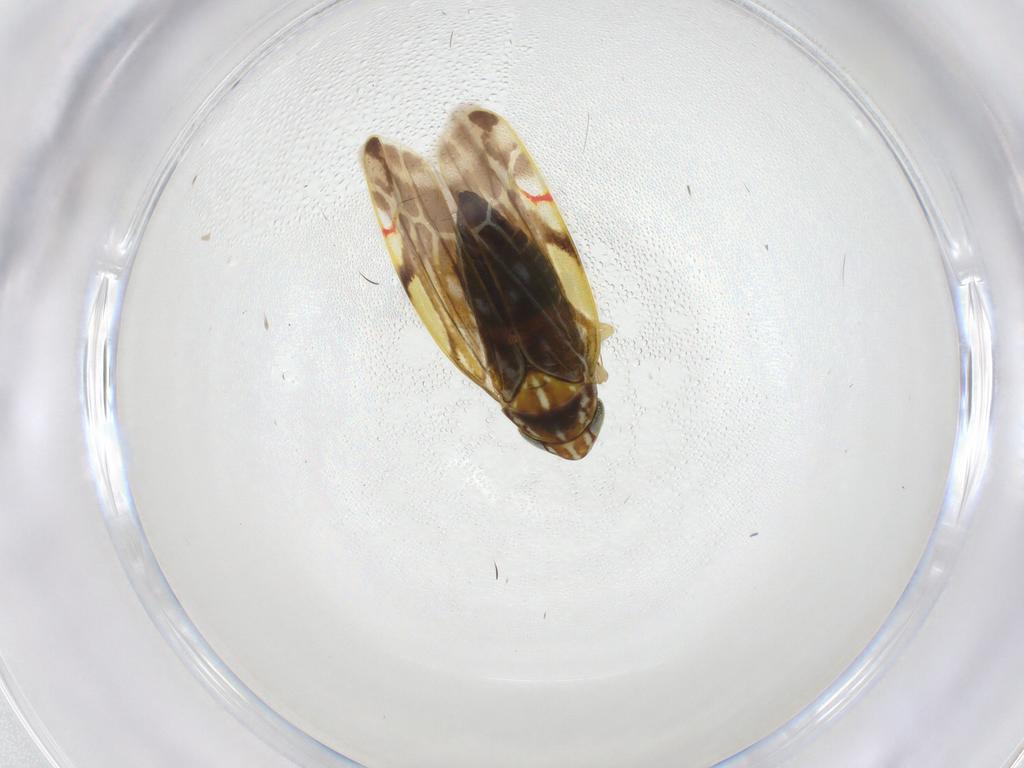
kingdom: Animalia
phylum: Arthropoda
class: Insecta
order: Hemiptera
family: Cicadellidae
